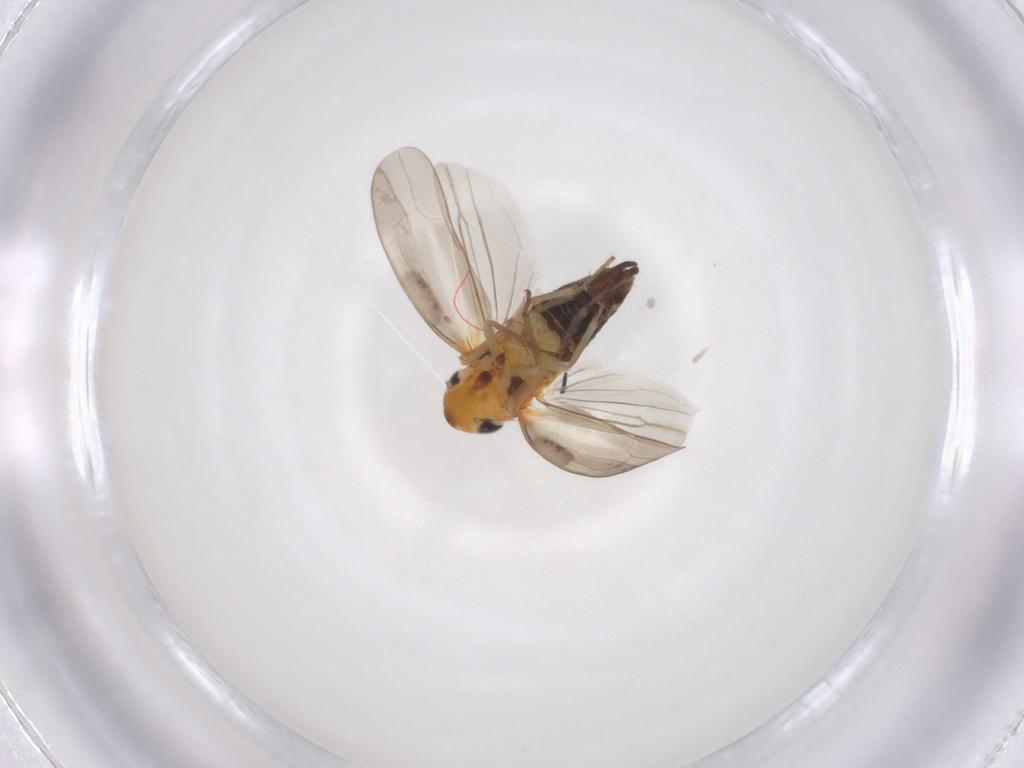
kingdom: Animalia
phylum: Arthropoda
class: Insecta
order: Hemiptera
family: Cicadellidae
